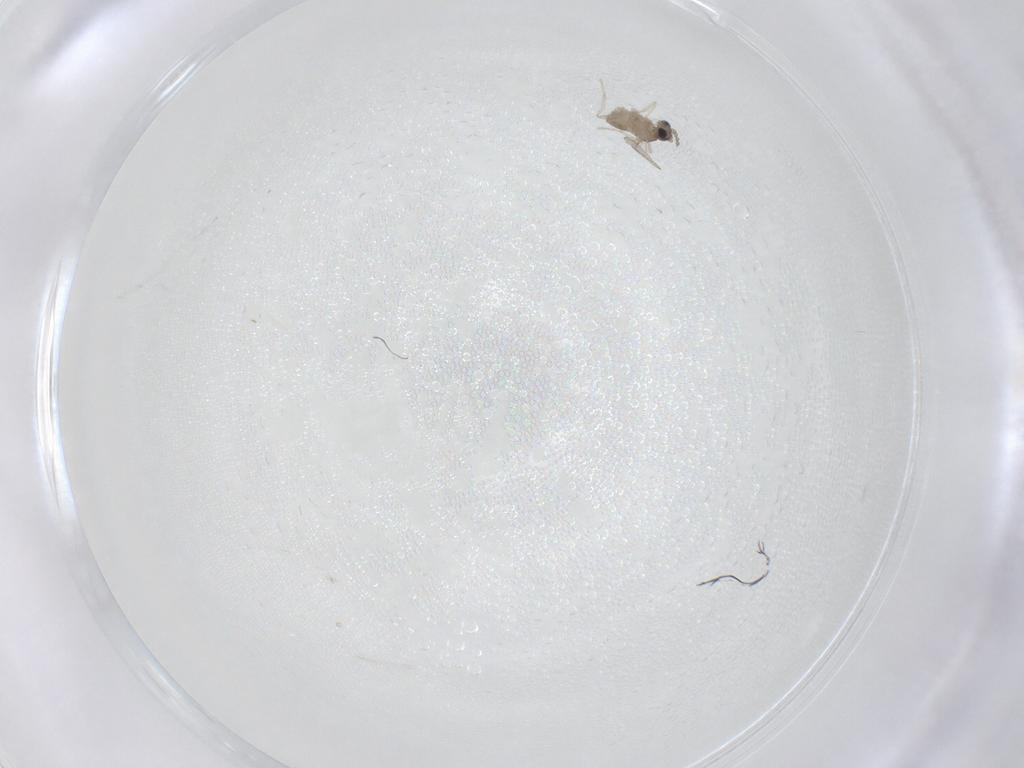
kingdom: Animalia
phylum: Arthropoda
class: Insecta
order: Diptera
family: Cecidomyiidae
